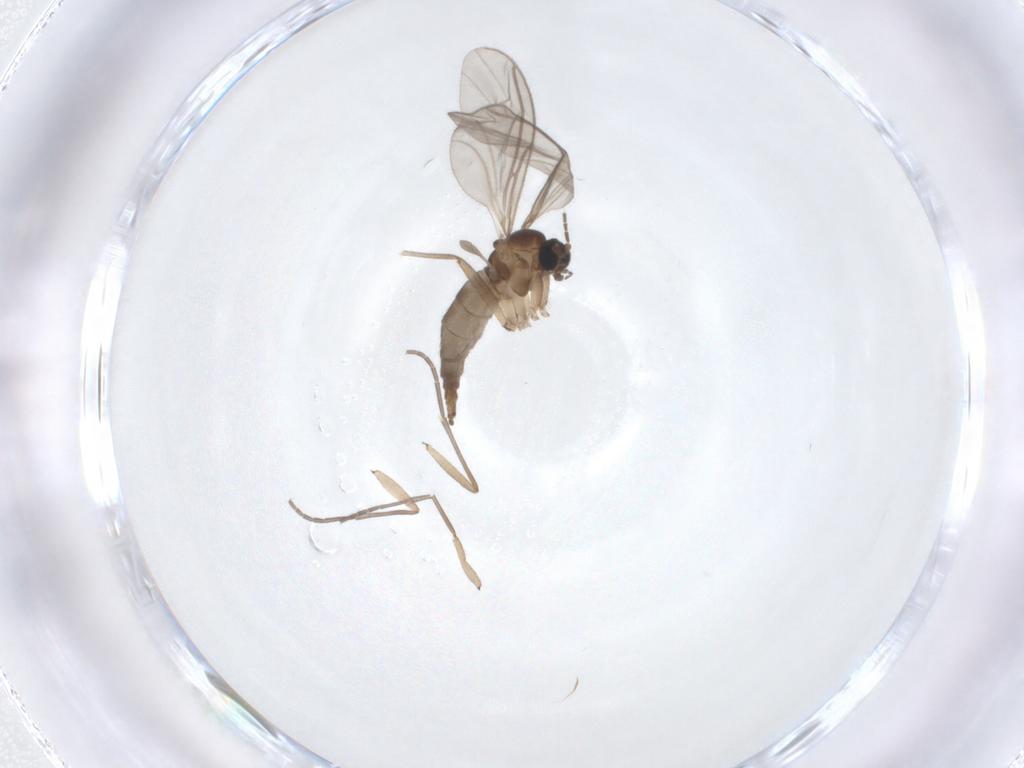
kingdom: Animalia
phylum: Arthropoda
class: Insecta
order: Diptera
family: Sciaridae
